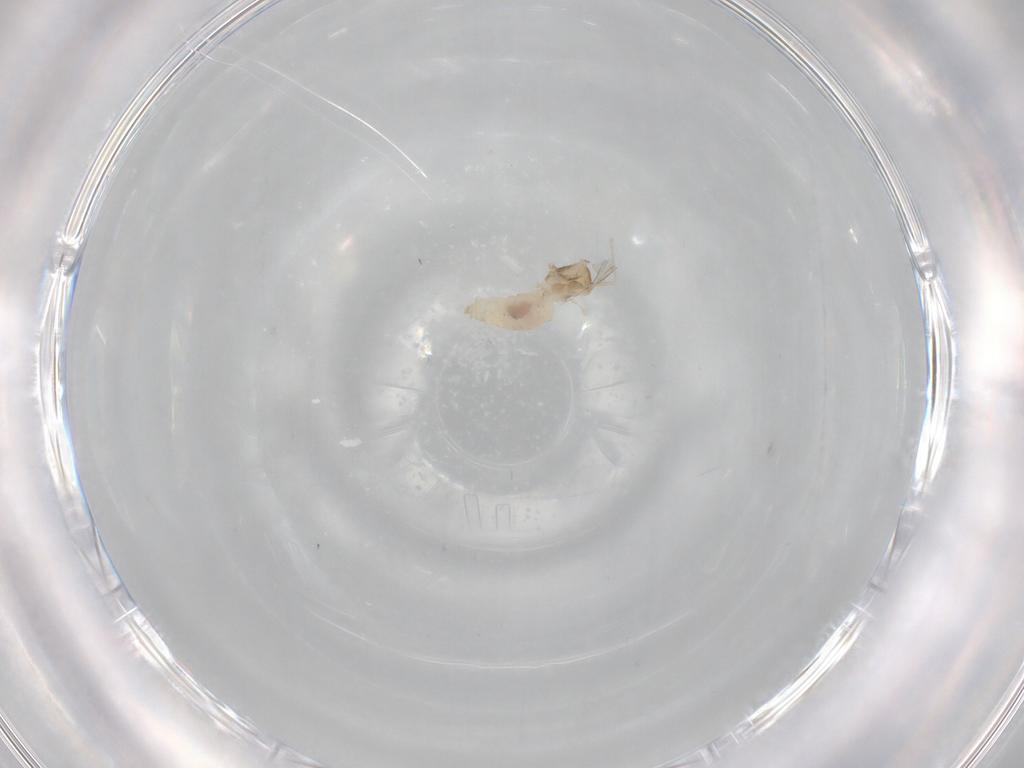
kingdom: Animalia
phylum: Arthropoda
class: Insecta
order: Diptera
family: Cecidomyiidae
